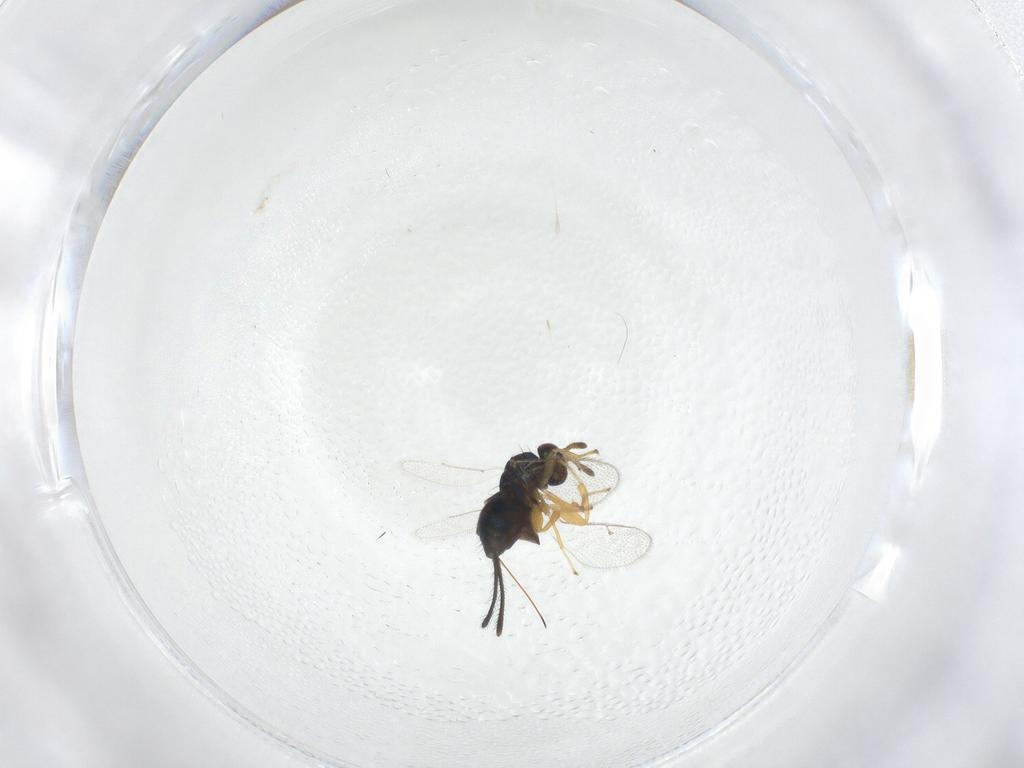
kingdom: Animalia
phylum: Arthropoda
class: Insecta
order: Hymenoptera
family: Torymidae
